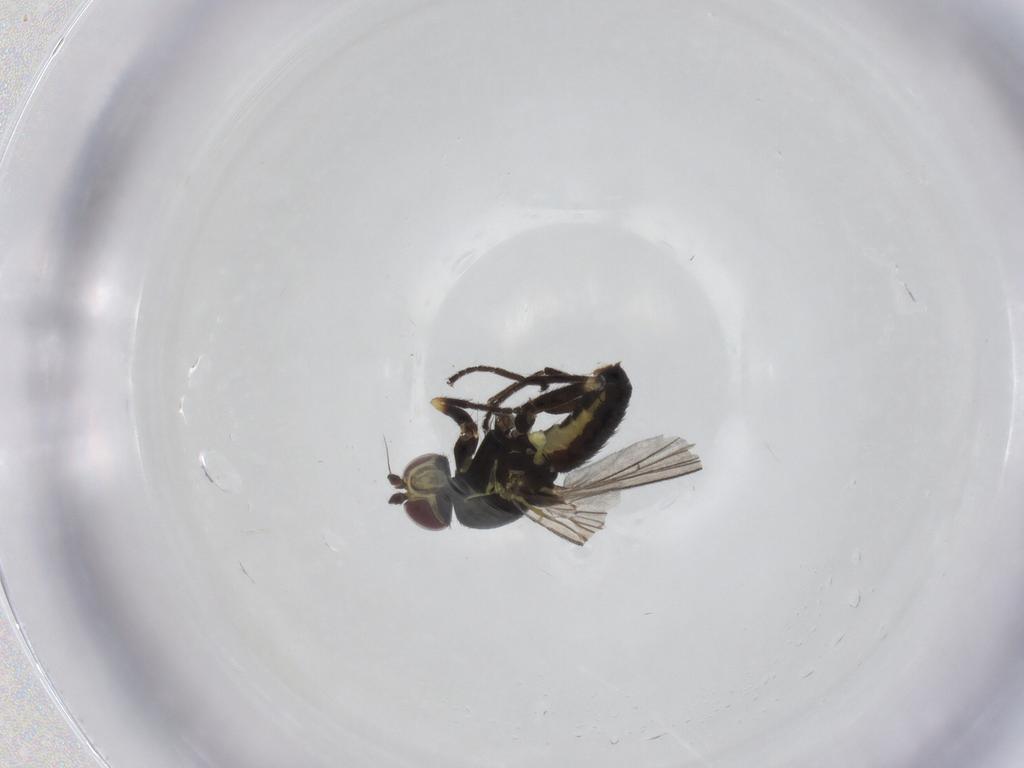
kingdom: Animalia
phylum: Arthropoda
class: Insecta
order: Diptera
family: Agromyzidae
